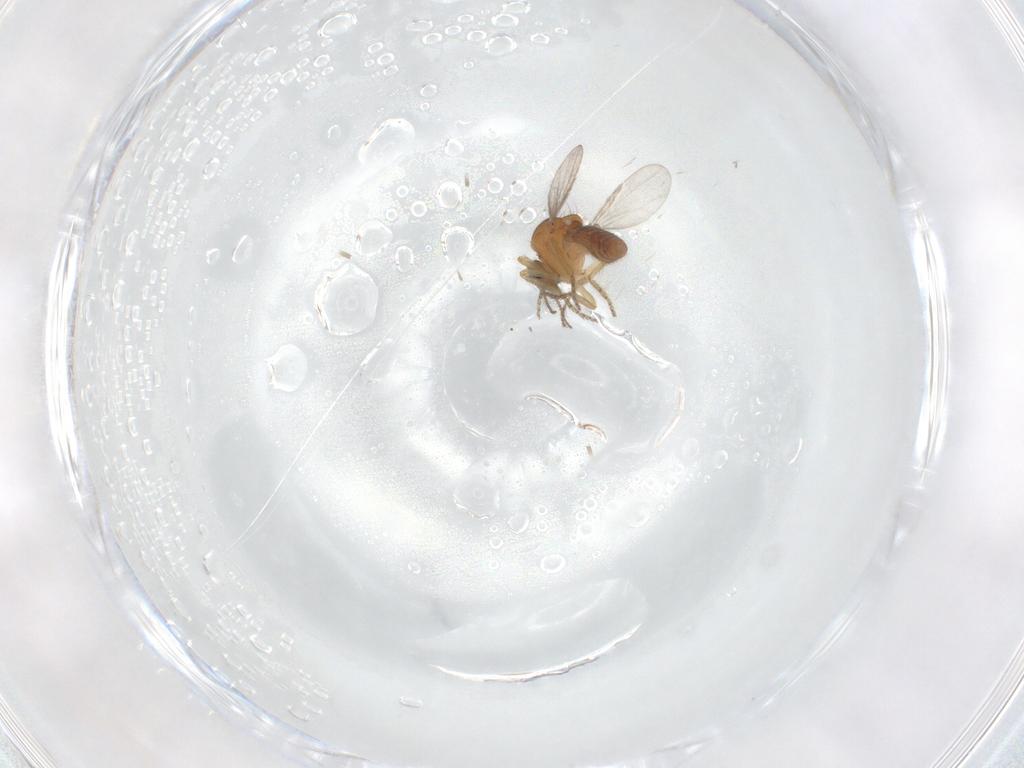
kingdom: Animalia
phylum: Arthropoda
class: Insecta
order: Diptera
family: Ceratopogonidae
